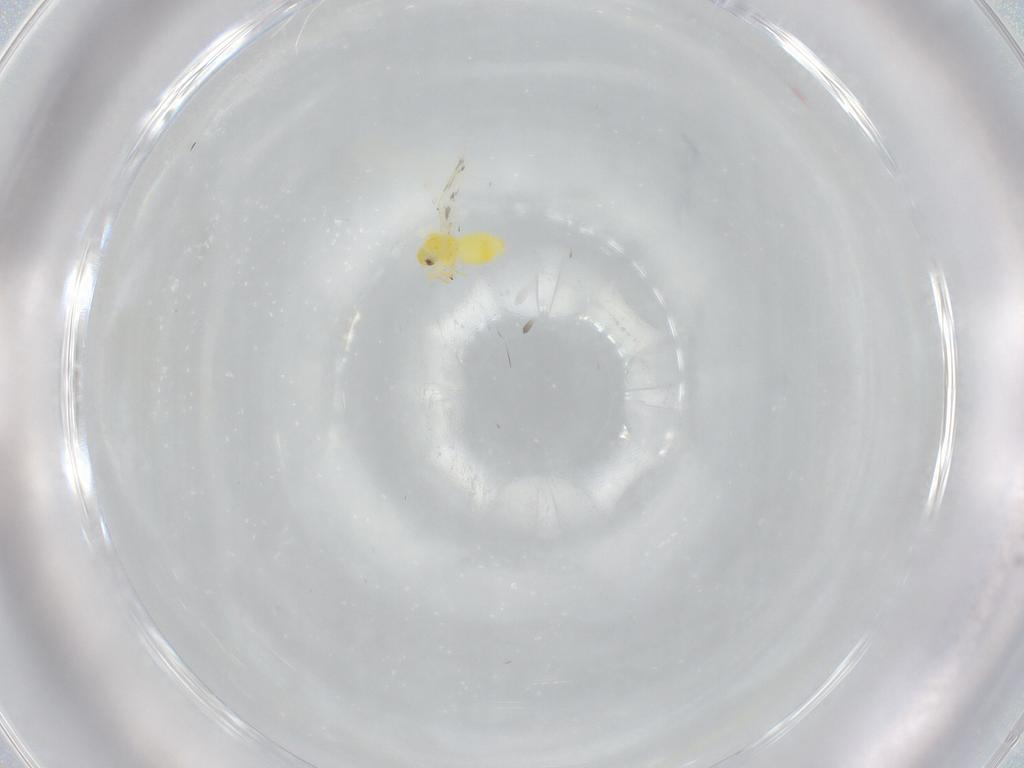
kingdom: Animalia
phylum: Arthropoda
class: Insecta
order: Hemiptera
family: Aleyrodidae
